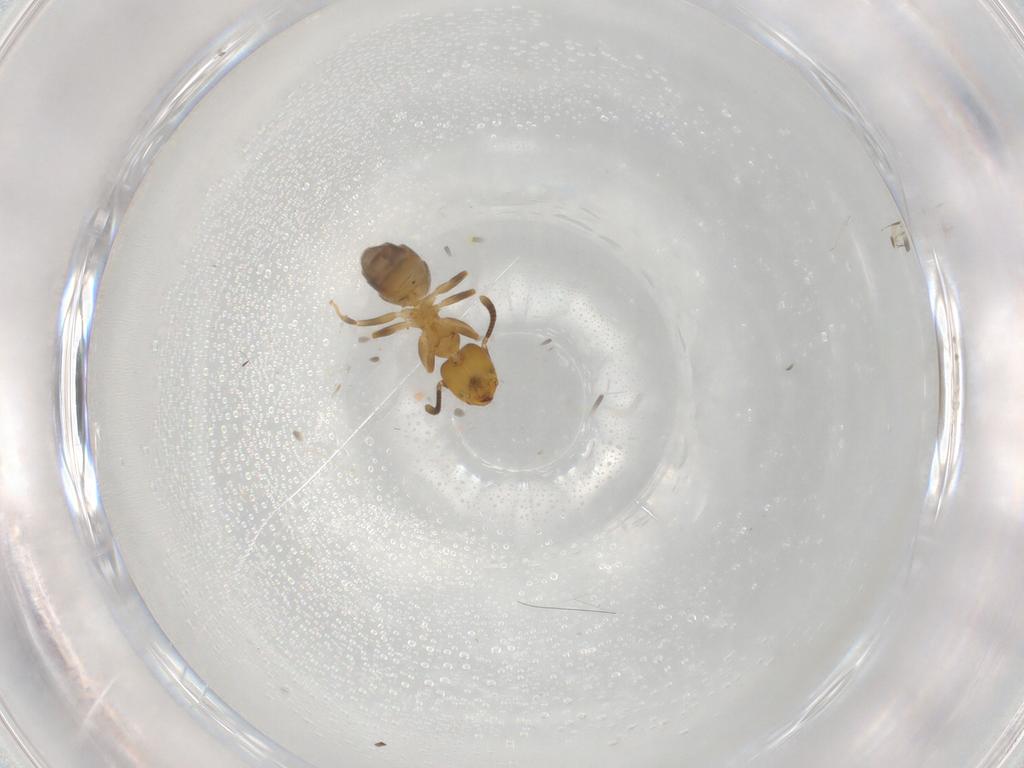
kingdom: Animalia
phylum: Arthropoda
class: Insecta
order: Hymenoptera
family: Formicidae
